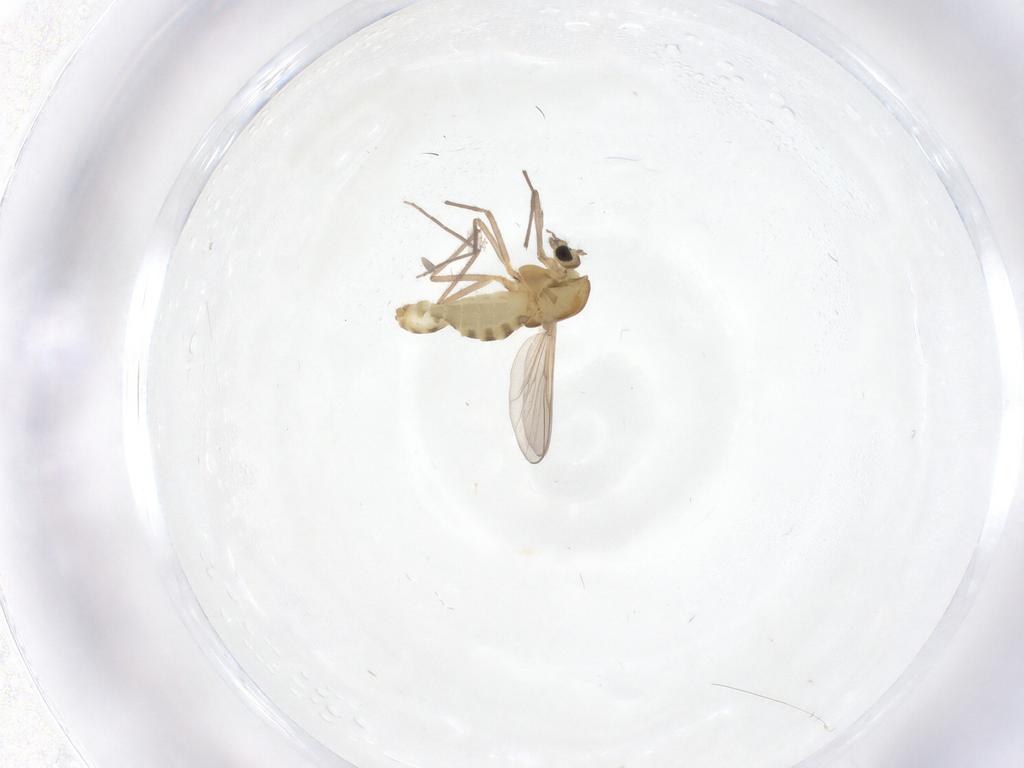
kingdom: Animalia
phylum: Arthropoda
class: Insecta
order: Diptera
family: Chironomidae
